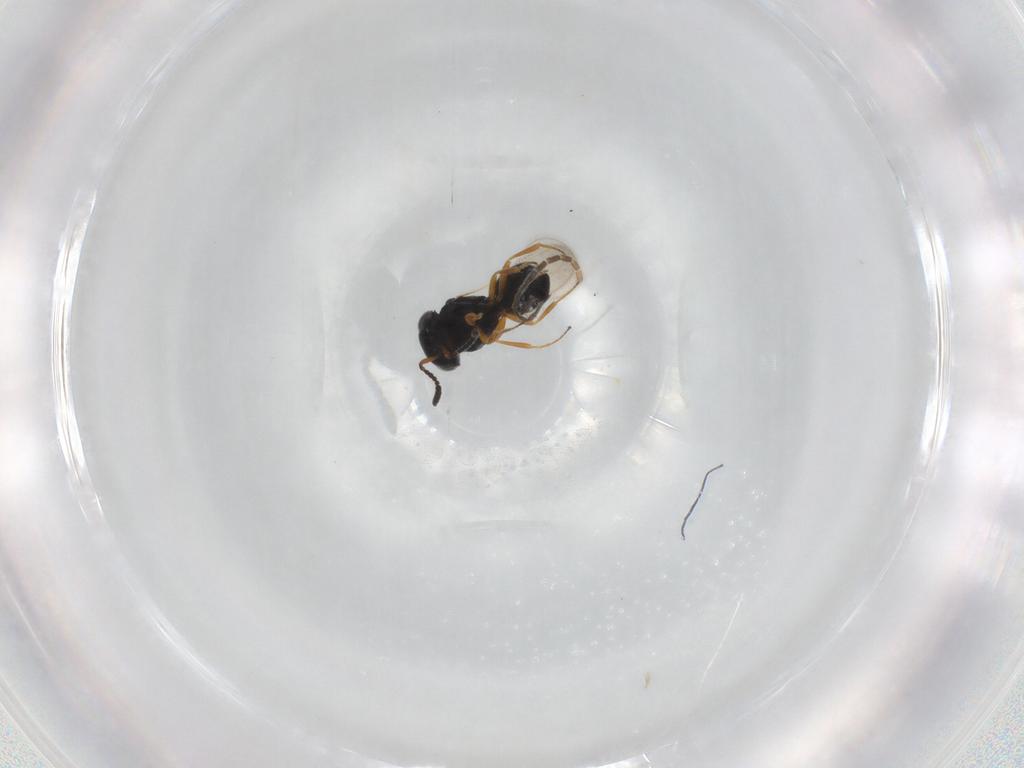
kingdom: Animalia
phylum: Arthropoda
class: Insecta
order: Hymenoptera
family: Scelionidae
